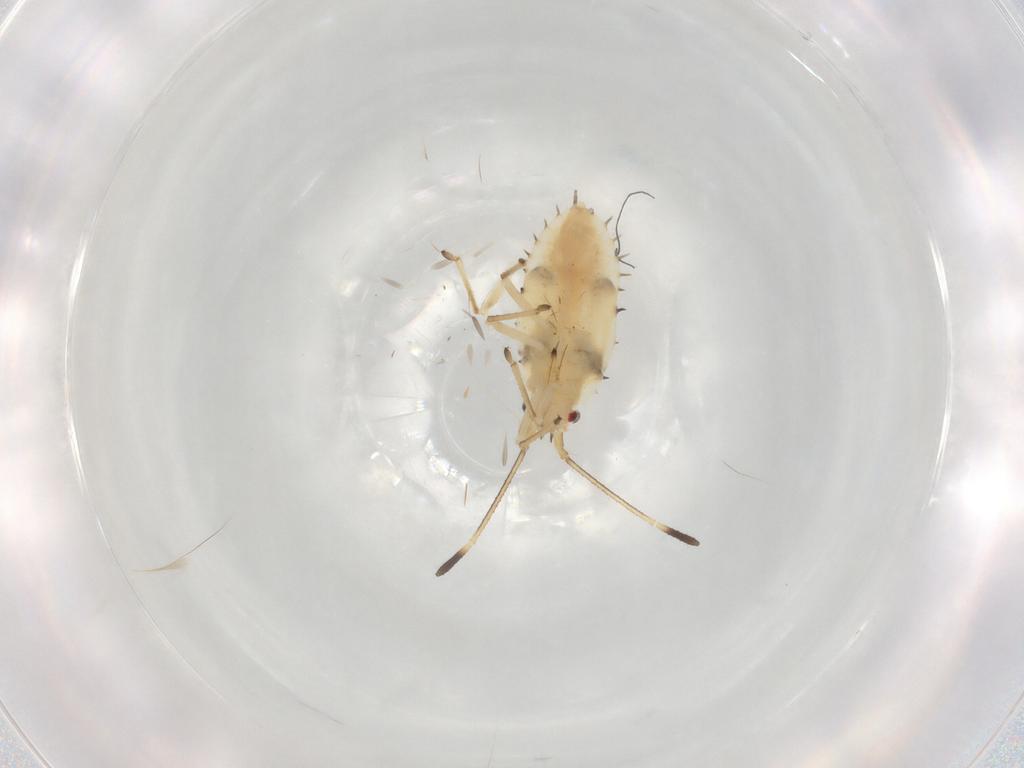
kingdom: Animalia
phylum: Arthropoda
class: Insecta
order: Hemiptera
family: Tingidae
